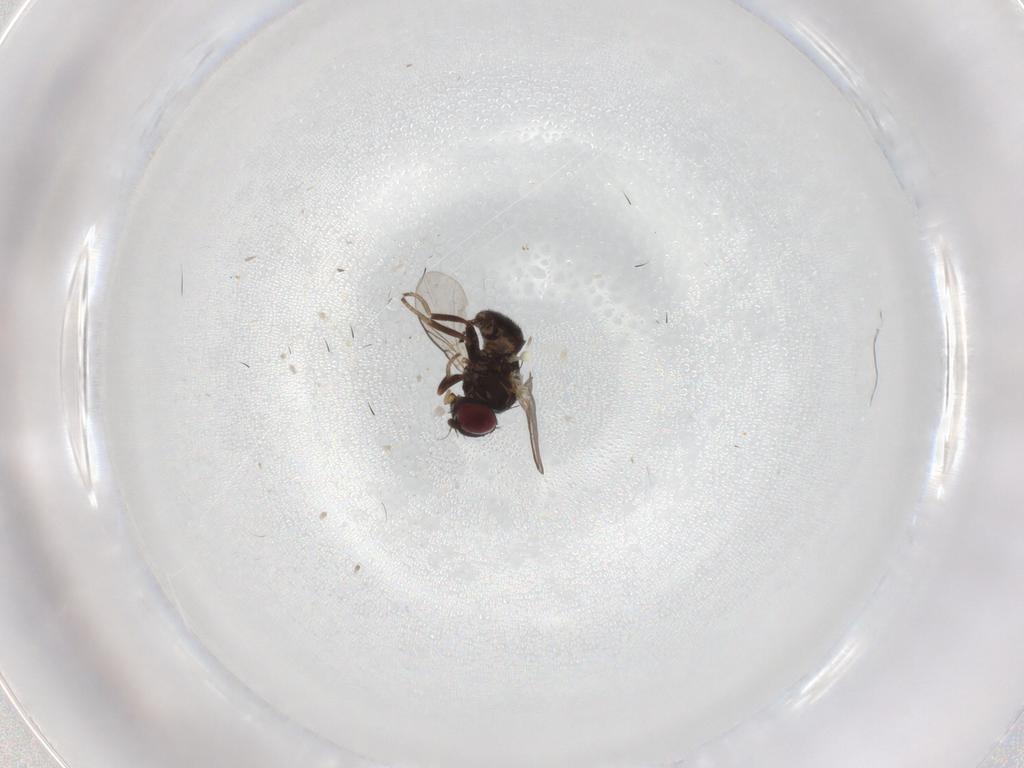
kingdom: Animalia
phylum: Arthropoda
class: Insecta
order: Diptera
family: Agromyzidae
